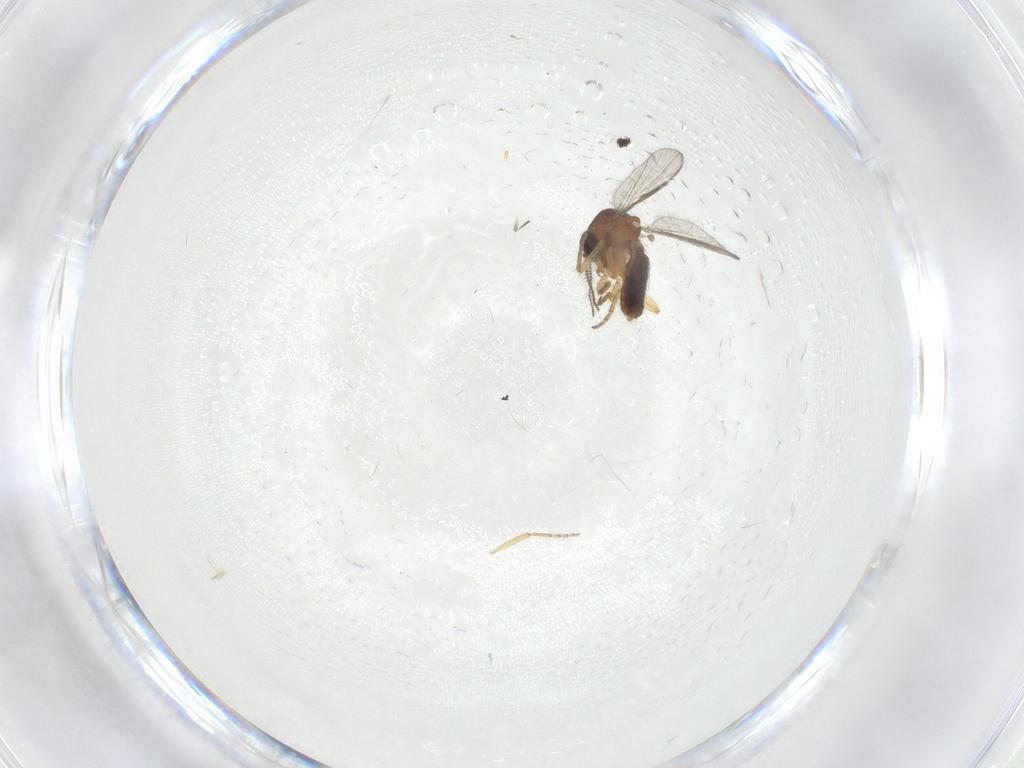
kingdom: Animalia
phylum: Arthropoda
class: Insecta
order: Diptera
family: Ceratopogonidae
